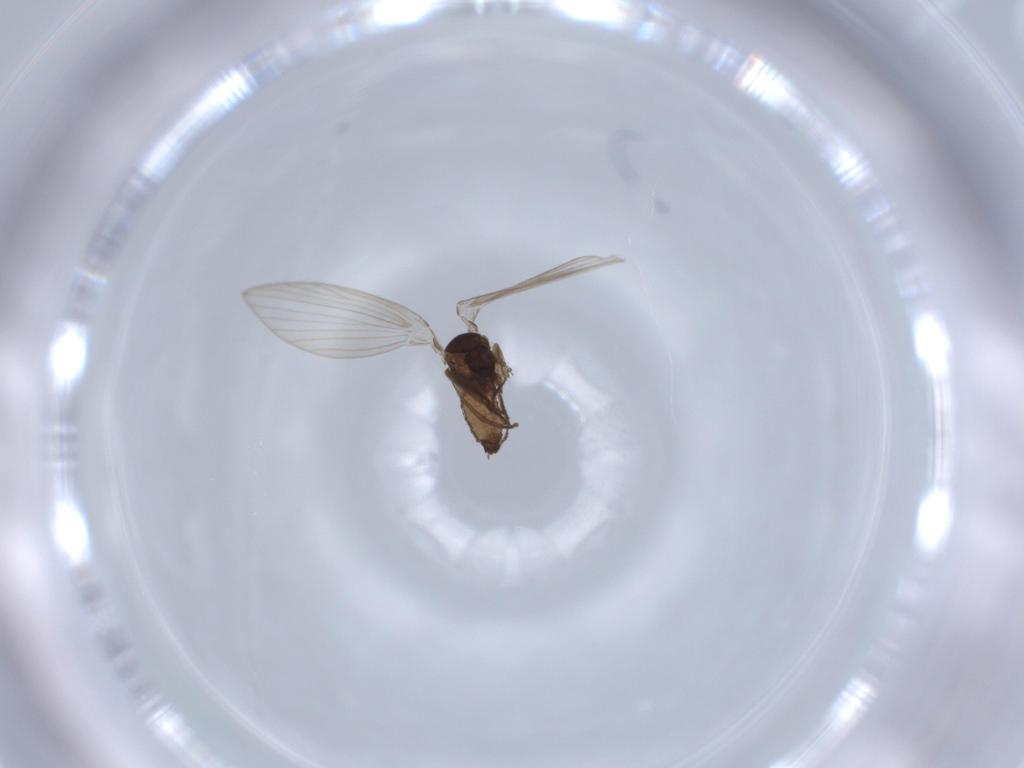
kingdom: Animalia
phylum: Arthropoda
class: Insecta
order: Diptera
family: Psychodidae
